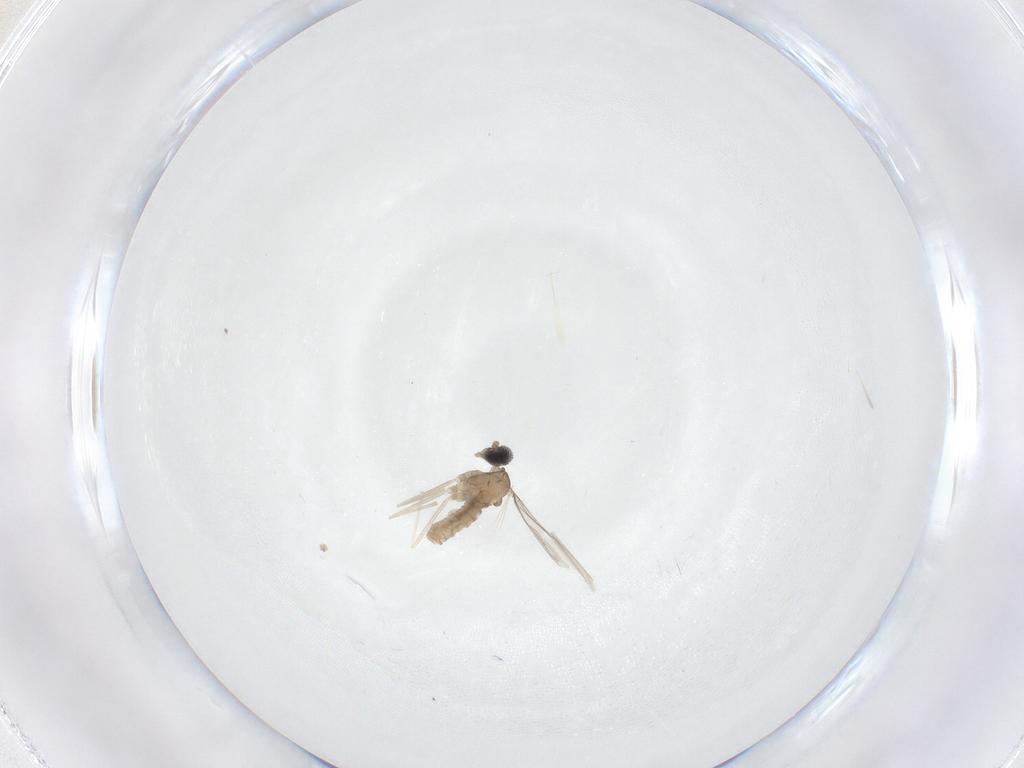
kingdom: Animalia
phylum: Arthropoda
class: Insecta
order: Diptera
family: Cecidomyiidae
